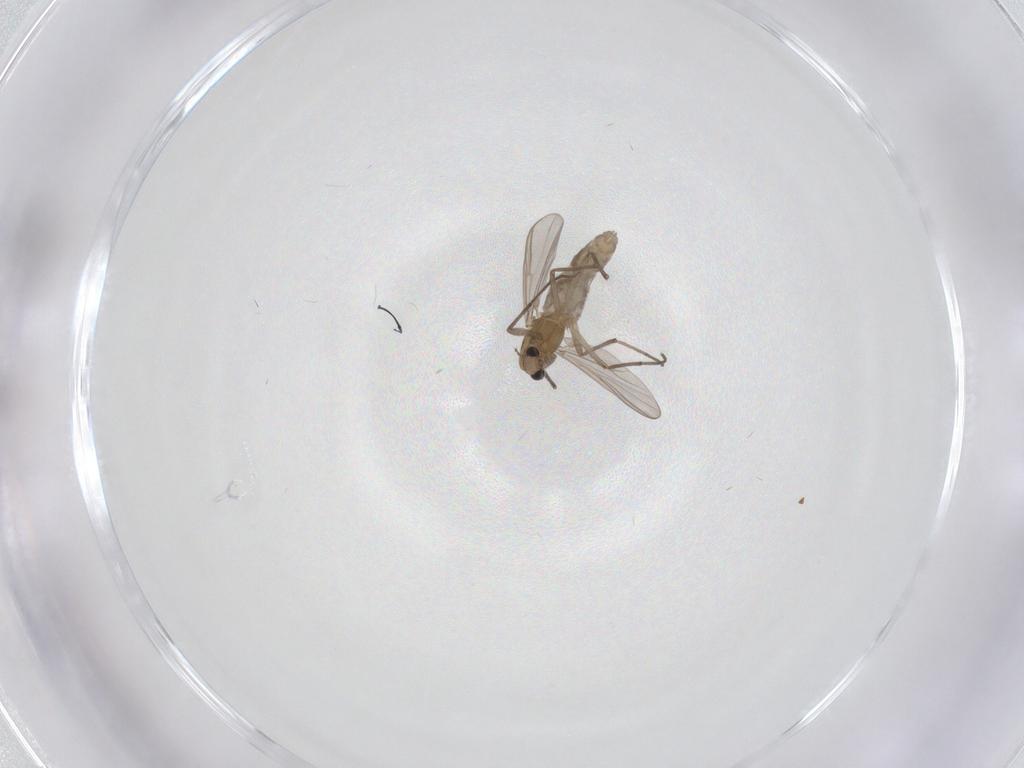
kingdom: Animalia
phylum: Arthropoda
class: Insecta
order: Diptera
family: Chironomidae
